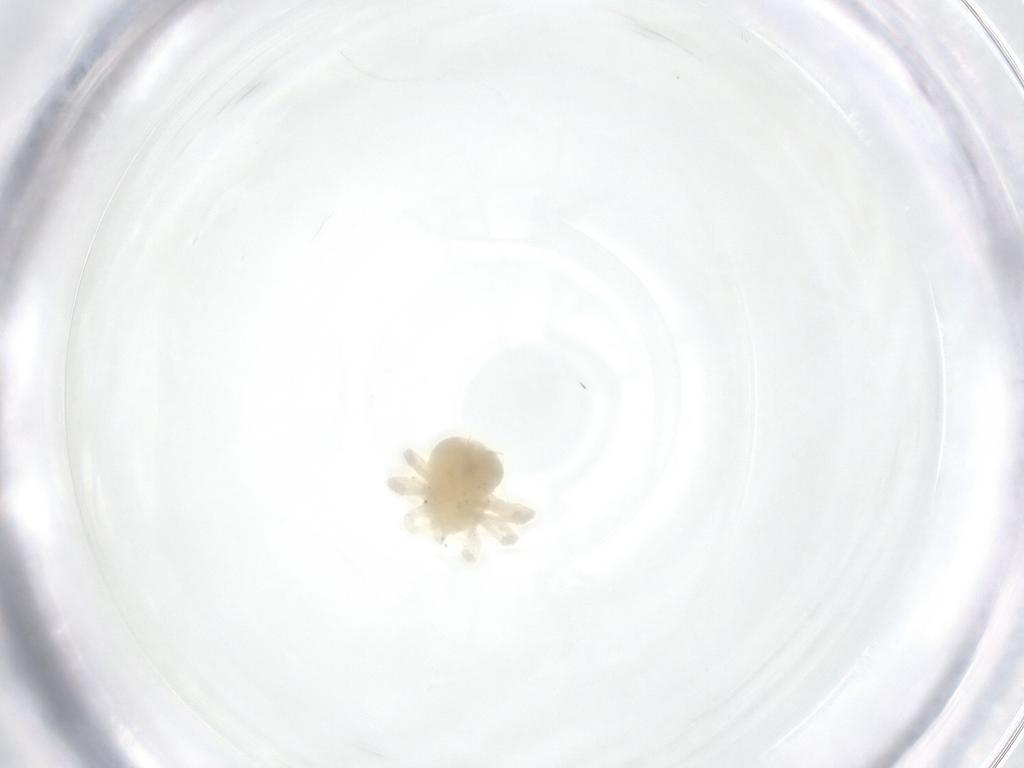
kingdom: Animalia
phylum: Arthropoda
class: Arachnida
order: Trombidiformes
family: Anystidae
